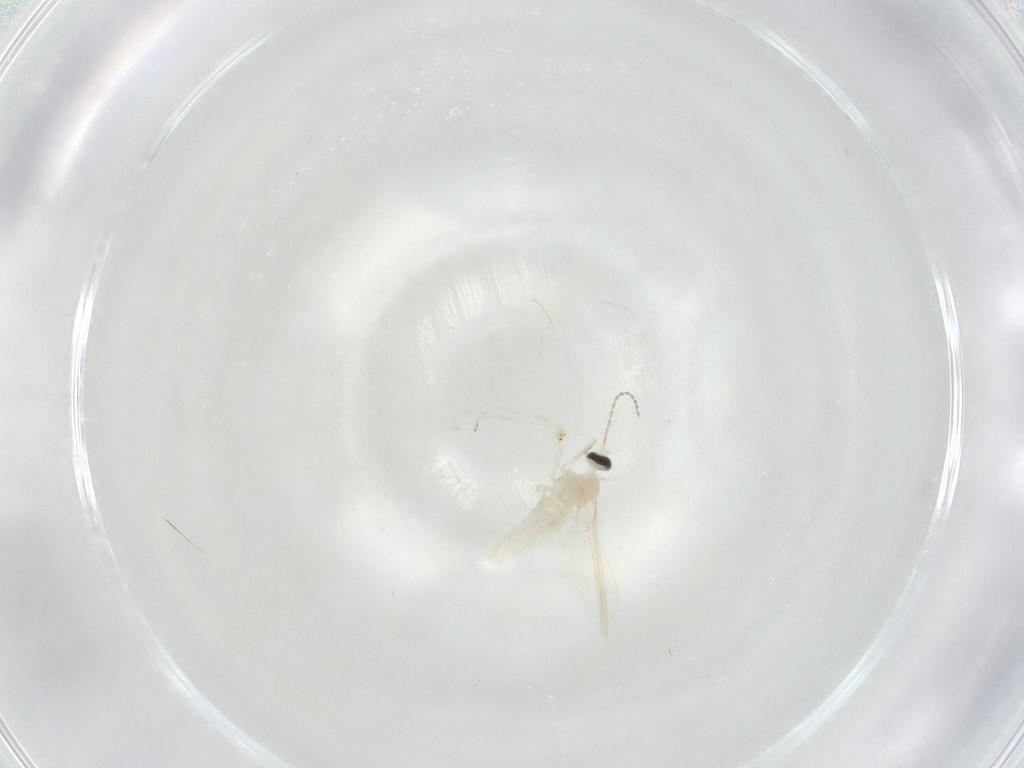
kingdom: Animalia
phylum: Arthropoda
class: Insecta
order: Diptera
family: Cecidomyiidae
